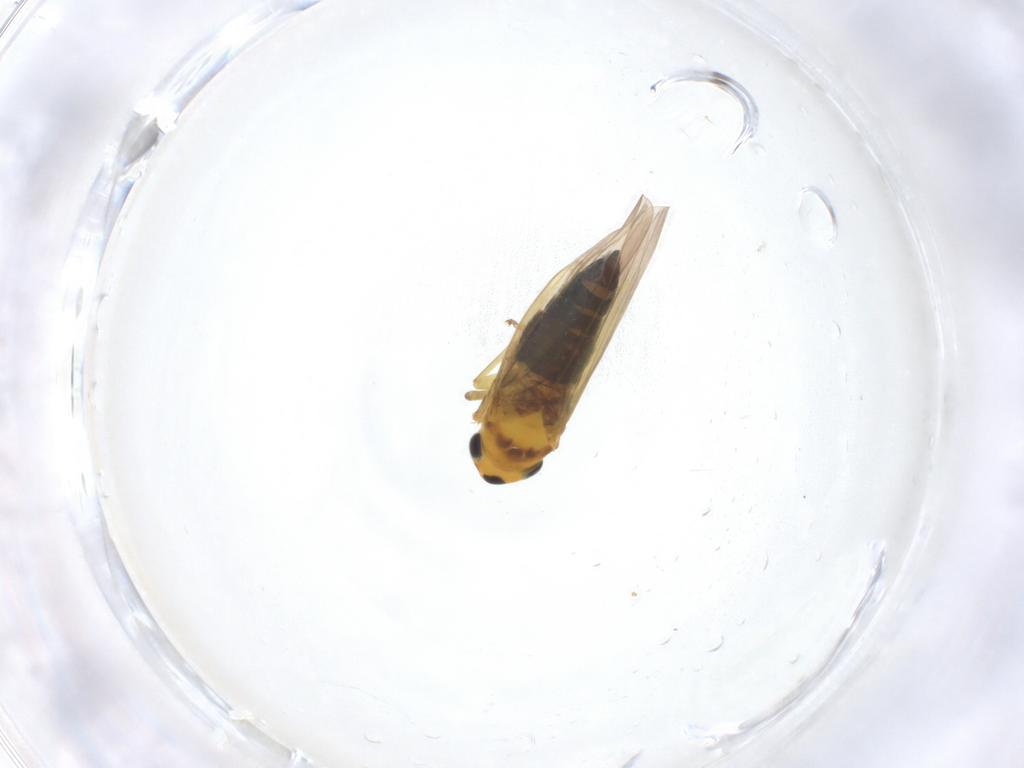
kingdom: Animalia
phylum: Arthropoda
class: Insecta
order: Hemiptera
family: Cicadellidae
